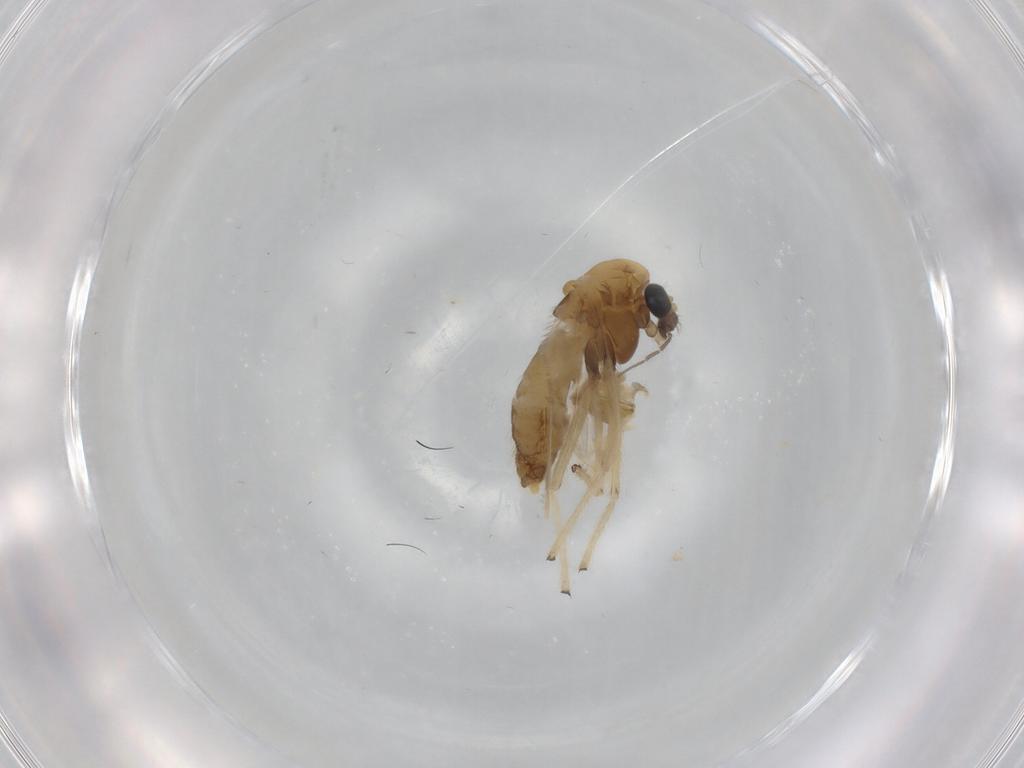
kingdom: Animalia
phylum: Arthropoda
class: Insecta
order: Diptera
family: Chironomidae
